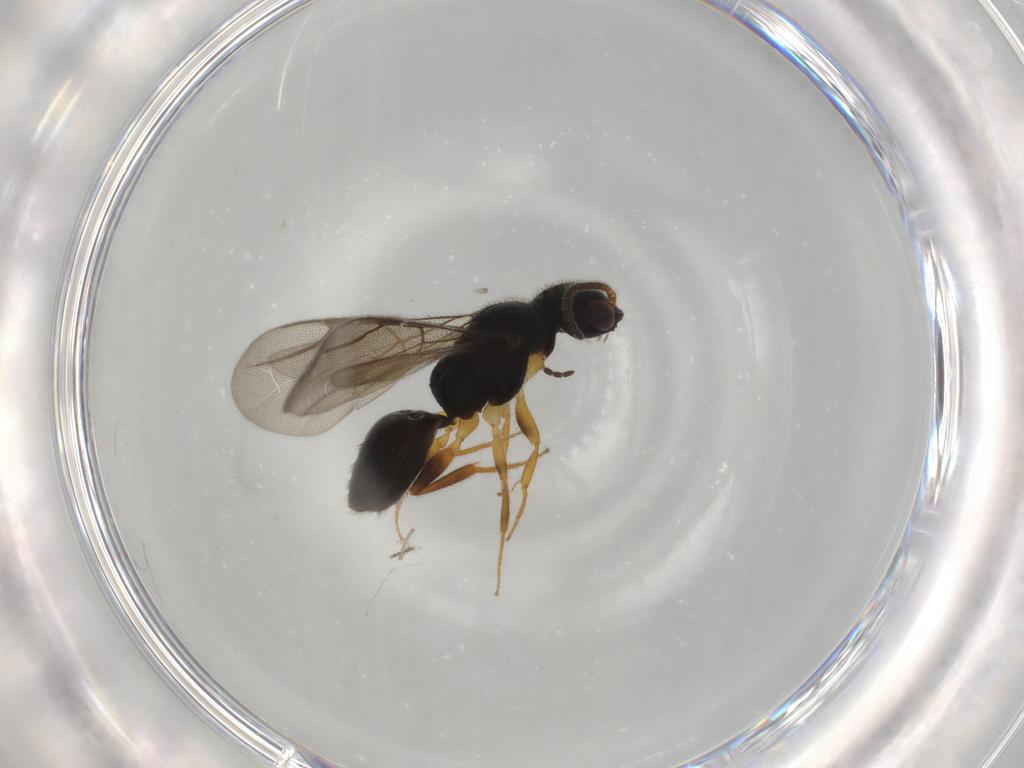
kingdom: Animalia
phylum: Arthropoda
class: Insecta
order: Hymenoptera
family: Bethylidae
